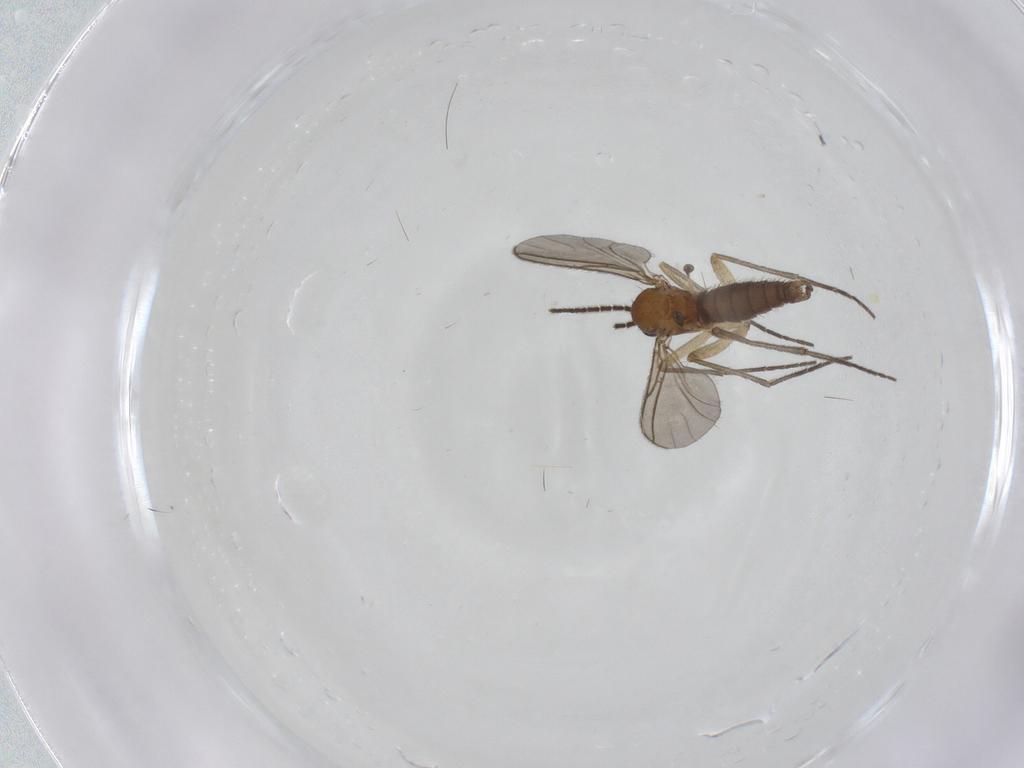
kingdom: Animalia
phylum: Arthropoda
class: Insecta
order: Diptera
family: Sciaridae
